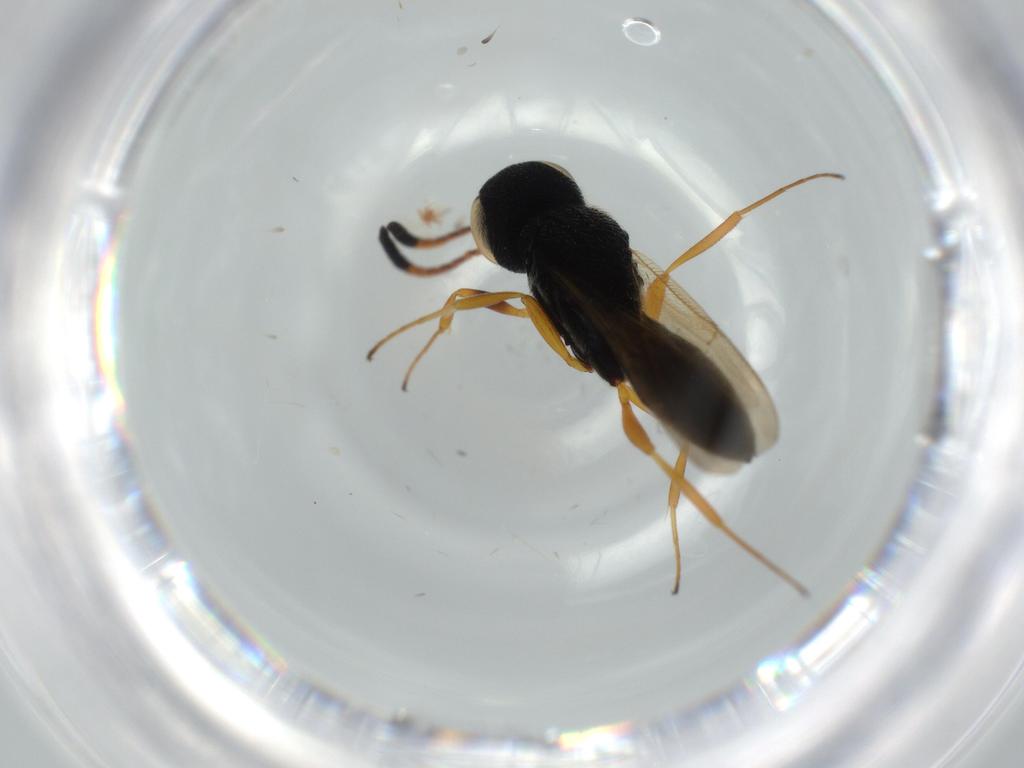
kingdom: Animalia
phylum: Arthropoda
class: Insecta
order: Hymenoptera
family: Scelionidae
